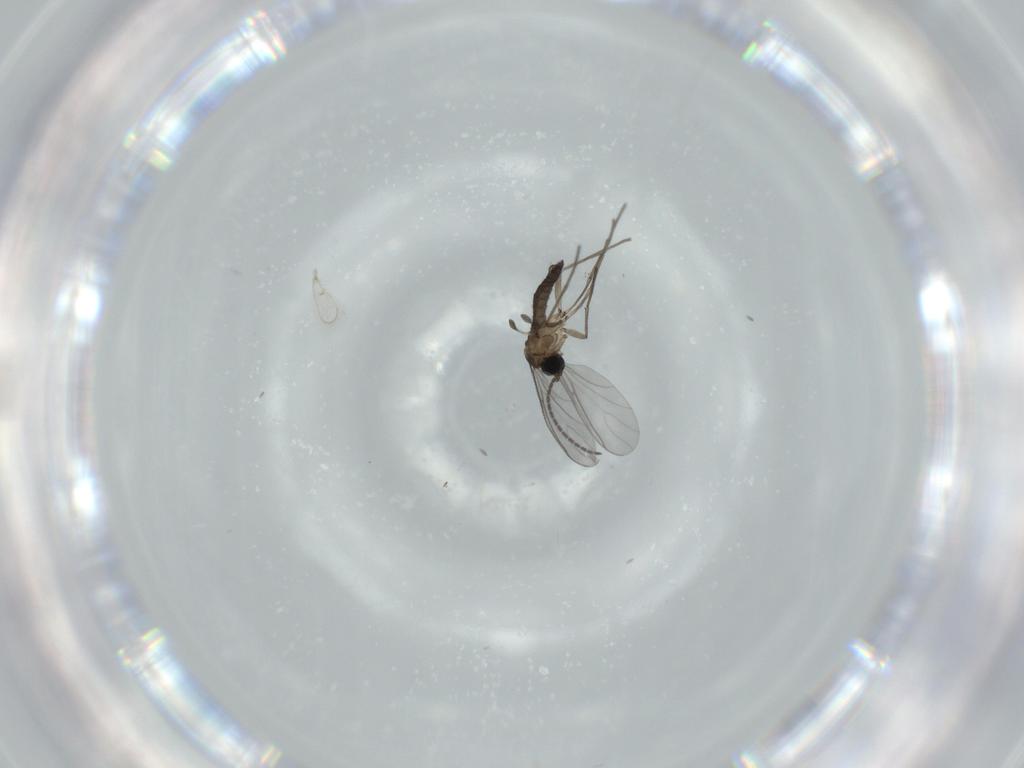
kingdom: Animalia
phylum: Arthropoda
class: Insecta
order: Diptera
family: Sciaridae
